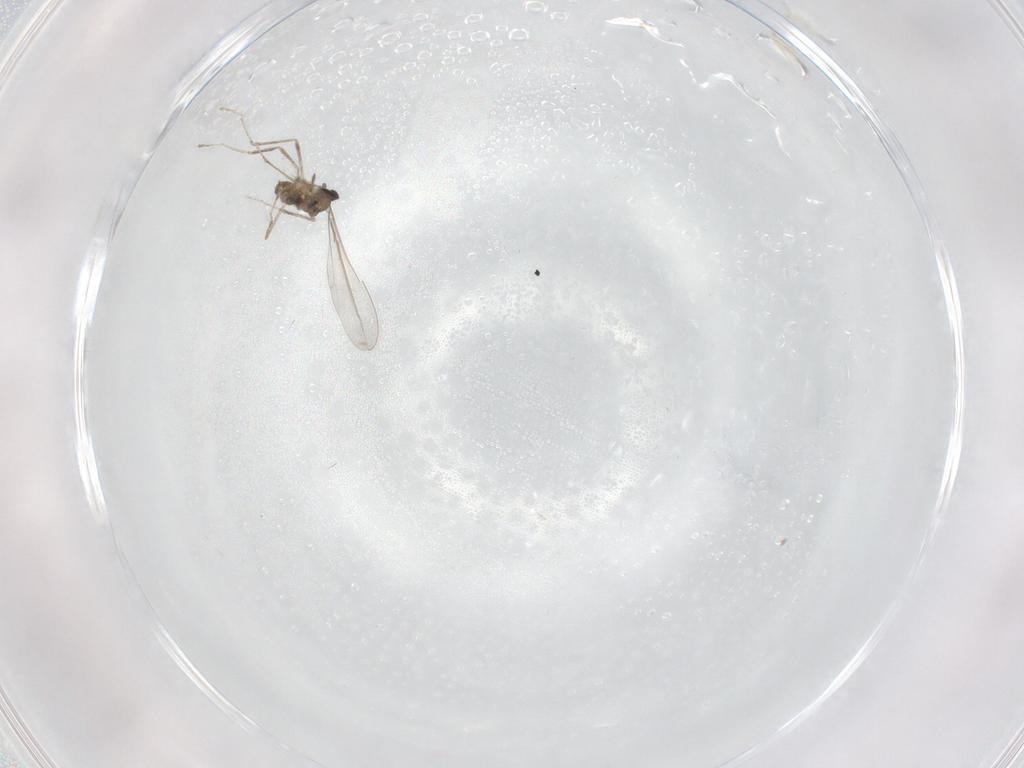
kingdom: Animalia
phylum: Arthropoda
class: Insecta
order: Diptera
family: Cecidomyiidae
